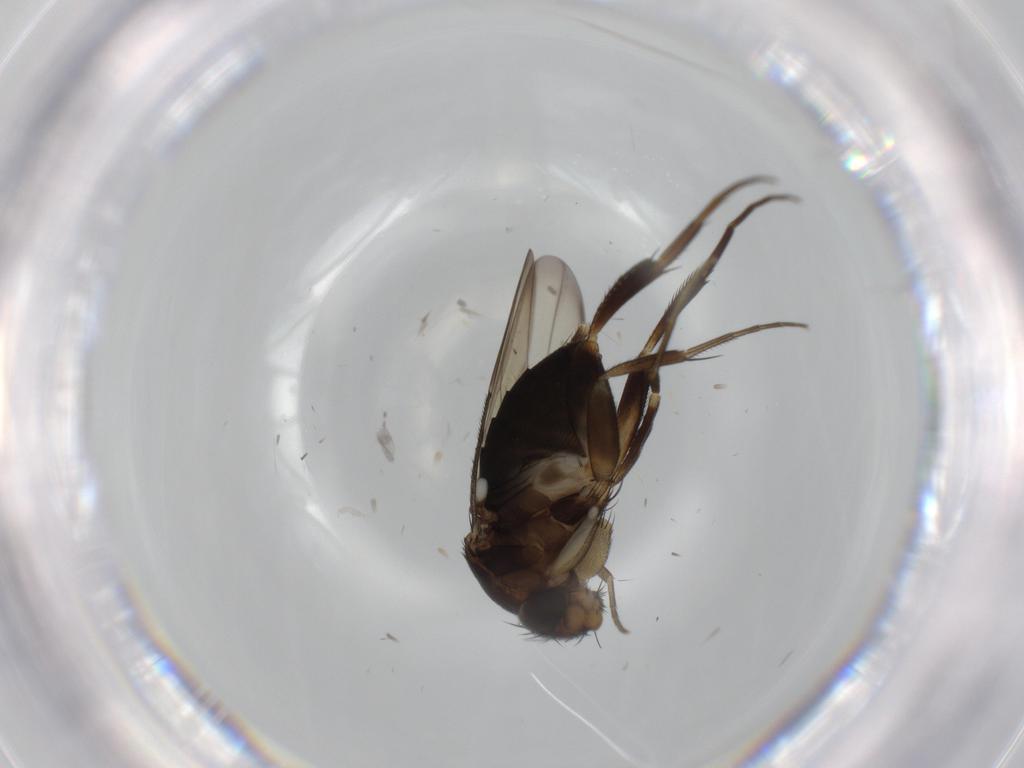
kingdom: Animalia
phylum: Arthropoda
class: Insecta
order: Diptera
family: Phoridae
